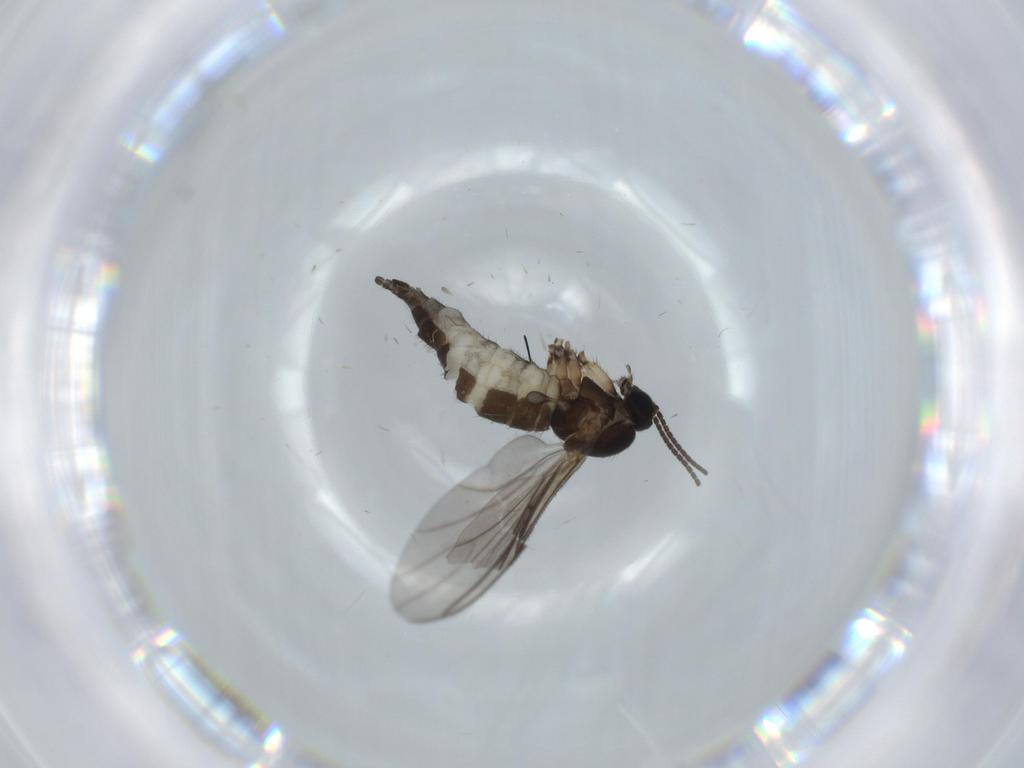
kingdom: Animalia
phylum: Arthropoda
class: Insecta
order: Diptera
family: Sciaridae
